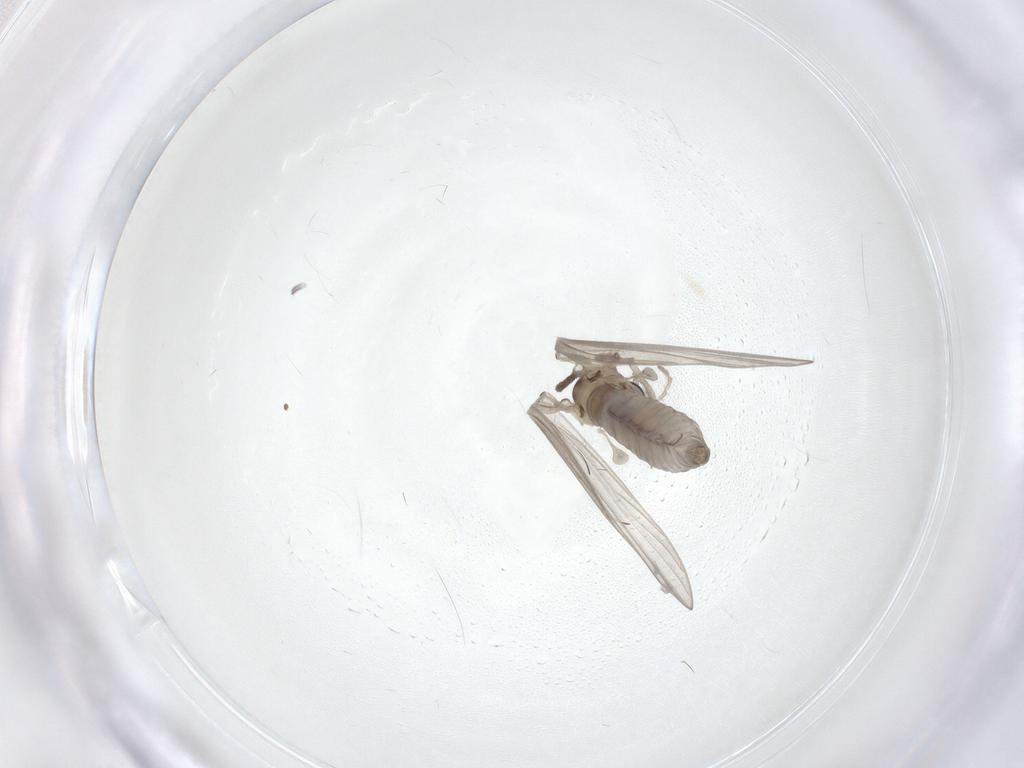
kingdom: Animalia
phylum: Arthropoda
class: Insecta
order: Diptera
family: Chironomidae
